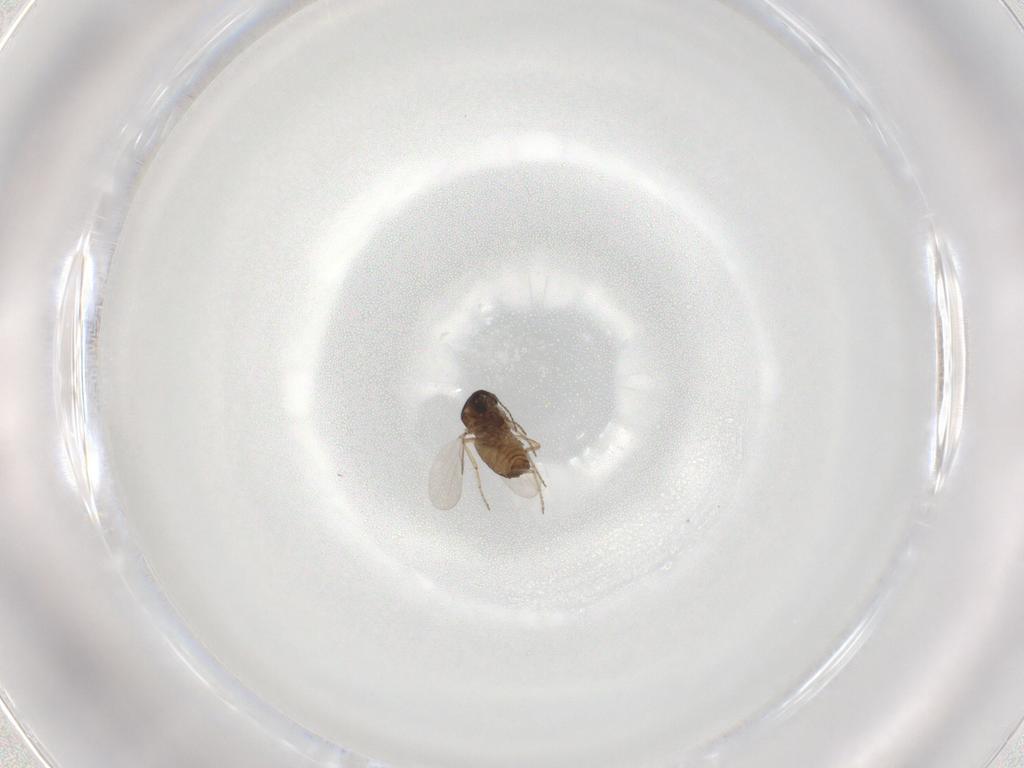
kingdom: Animalia
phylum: Arthropoda
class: Insecta
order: Diptera
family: Ceratopogonidae
